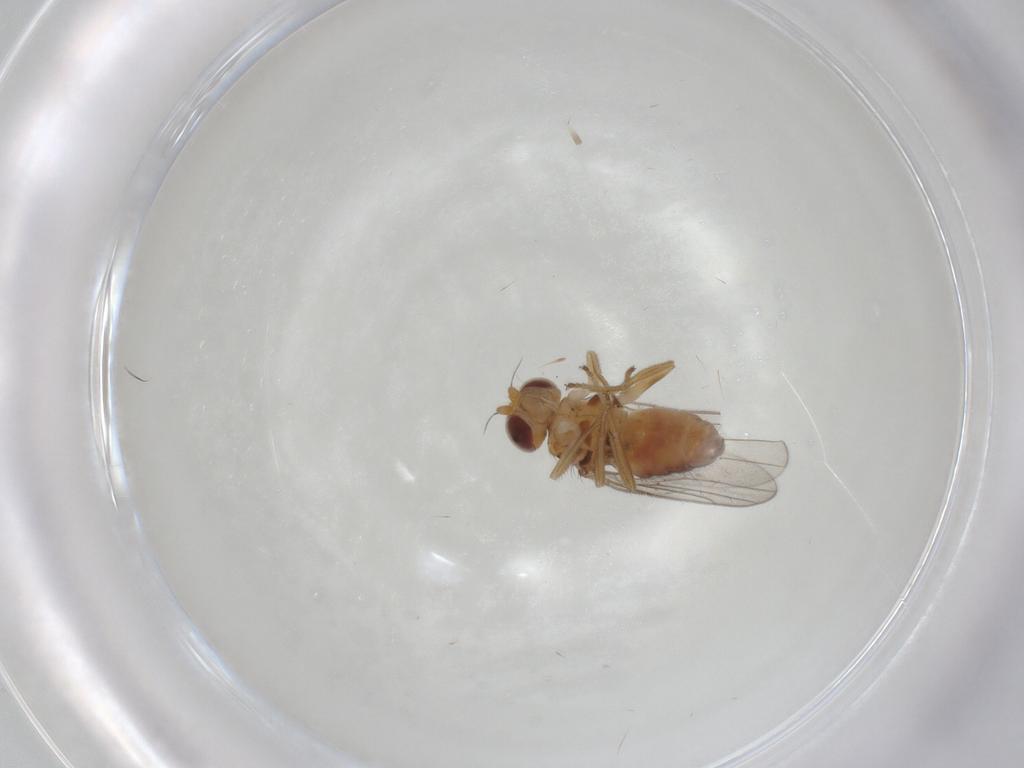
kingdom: Animalia
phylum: Arthropoda
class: Insecta
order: Diptera
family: Chloropidae
